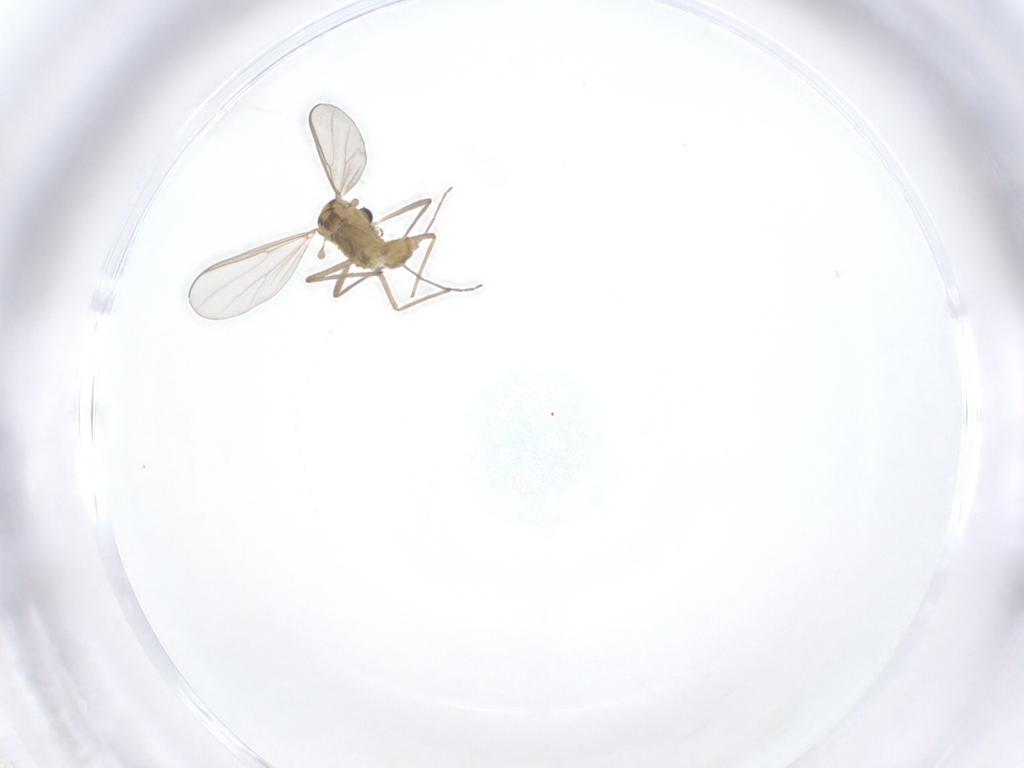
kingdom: Animalia
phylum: Arthropoda
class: Insecta
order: Diptera
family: Chironomidae
